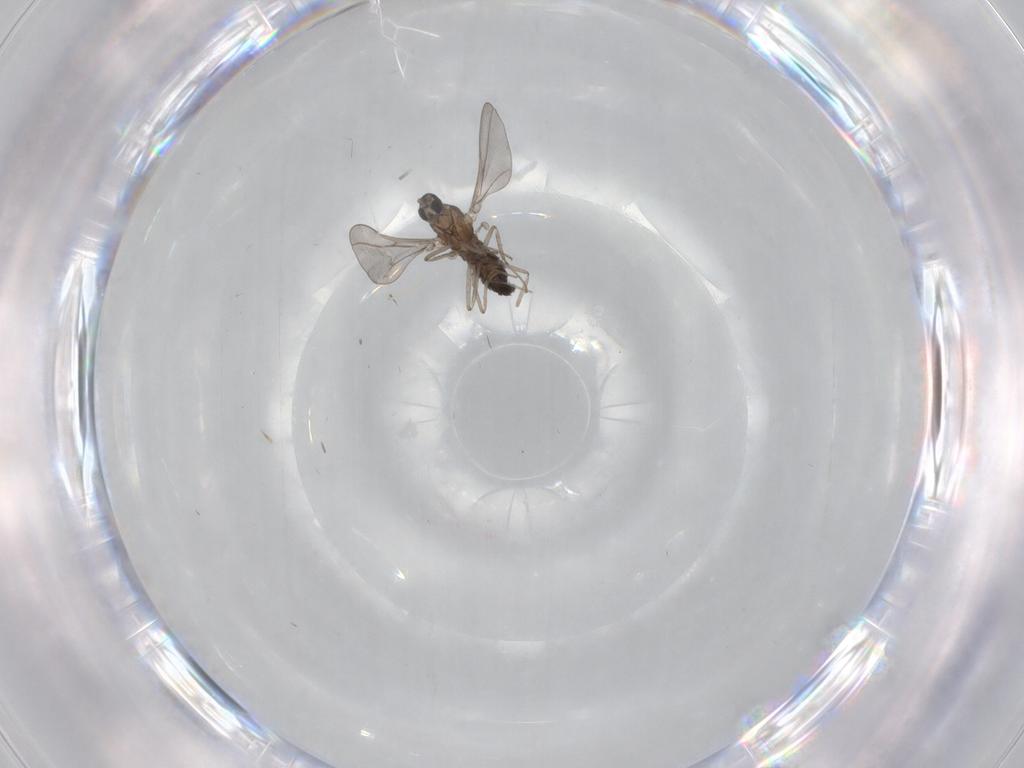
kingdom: Animalia
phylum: Arthropoda
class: Insecta
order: Diptera
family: Cecidomyiidae
